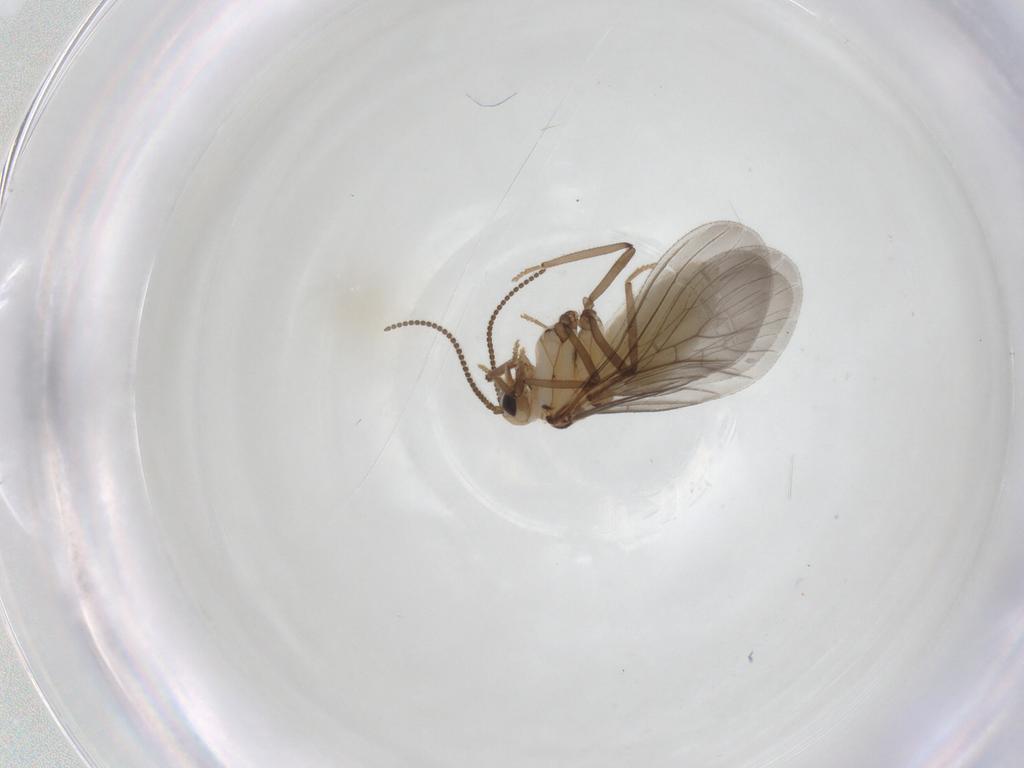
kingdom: Animalia
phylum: Arthropoda
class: Insecta
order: Neuroptera
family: Coniopterygidae
